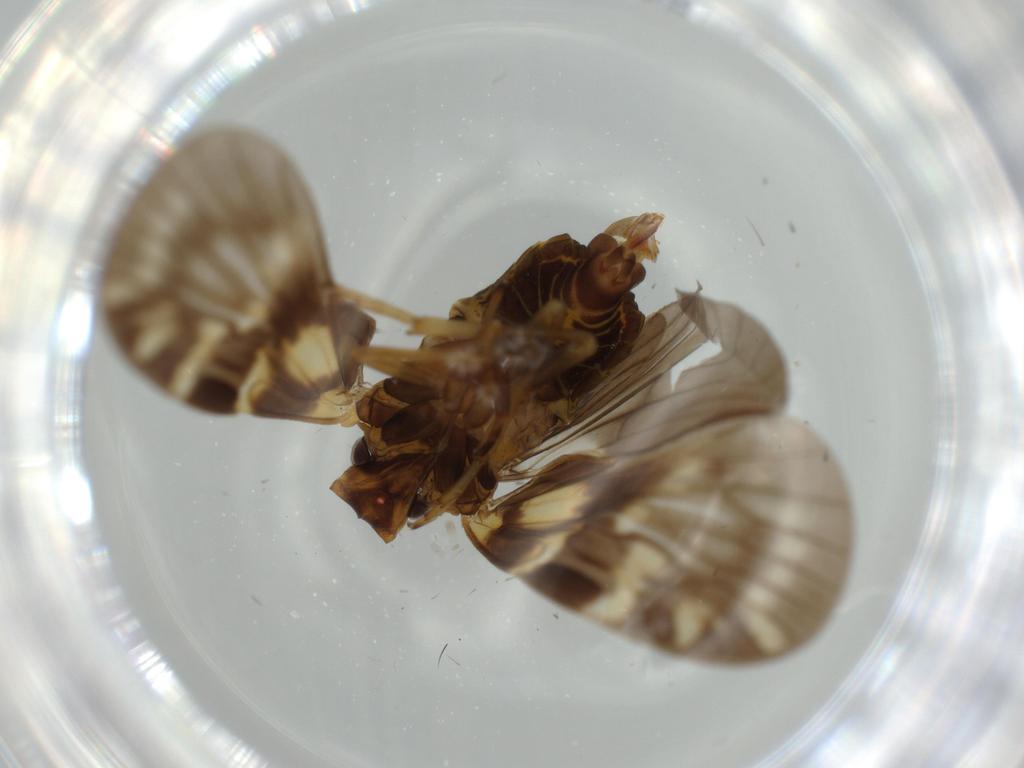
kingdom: Animalia
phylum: Arthropoda
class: Insecta
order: Hemiptera
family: Cixiidae
